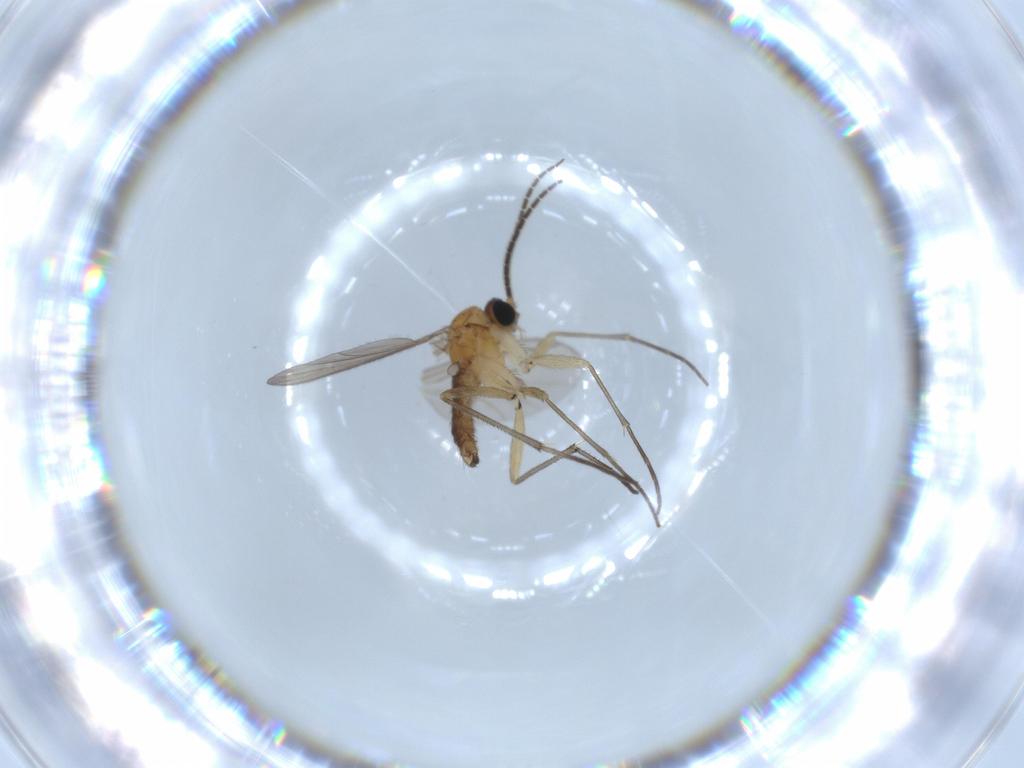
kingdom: Animalia
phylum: Arthropoda
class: Insecta
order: Diptera
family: Sciaridae
